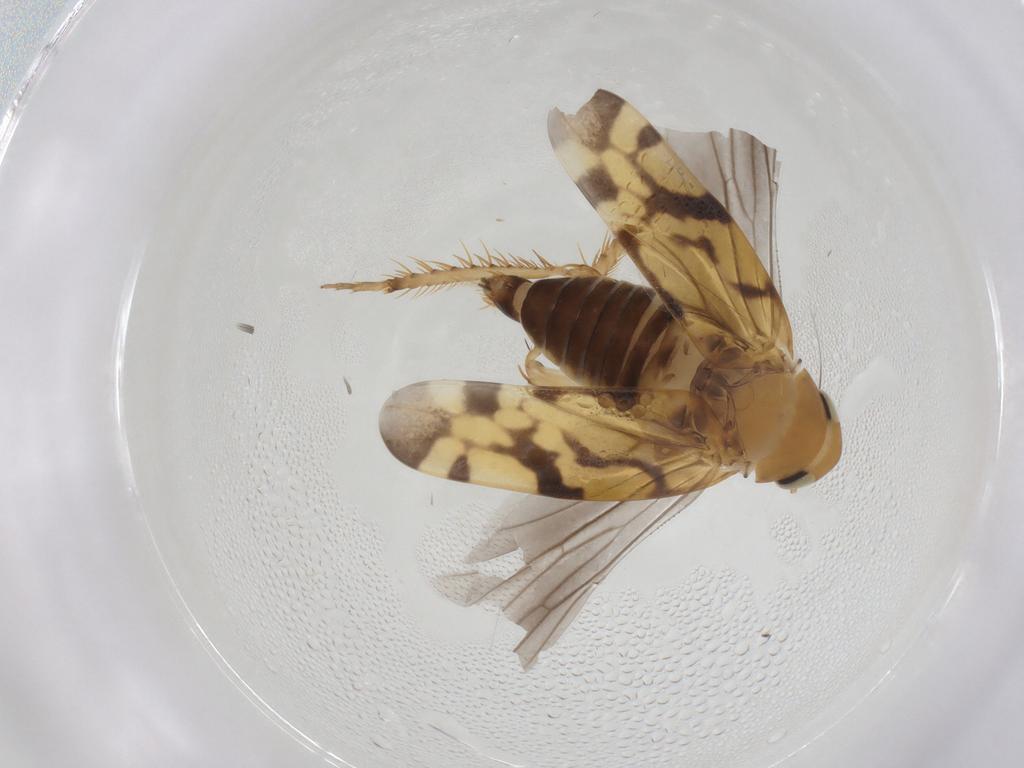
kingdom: Animalia
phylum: Arthropoda
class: Insecta
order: Hemiptera
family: Cicadellidae
